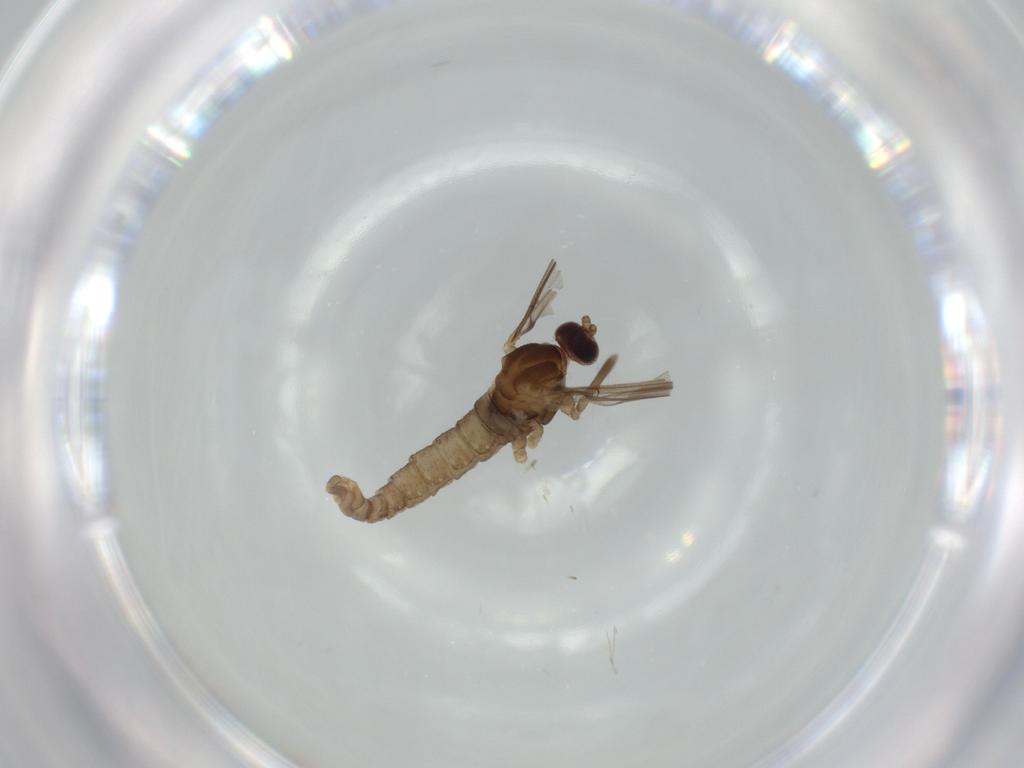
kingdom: Animalia
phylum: Arthropoda
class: Insecta
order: Diptera
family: Cecidomyiidae
